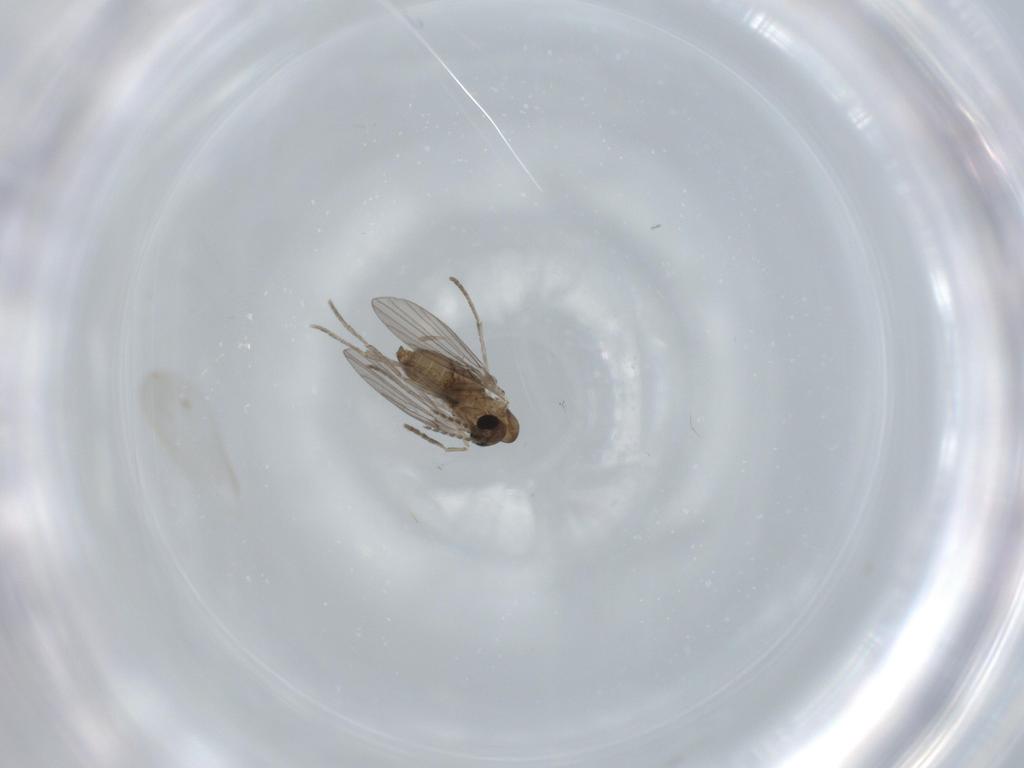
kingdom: Animalia
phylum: Arthropoda
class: Insecta
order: Diptera
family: Psychodidae
